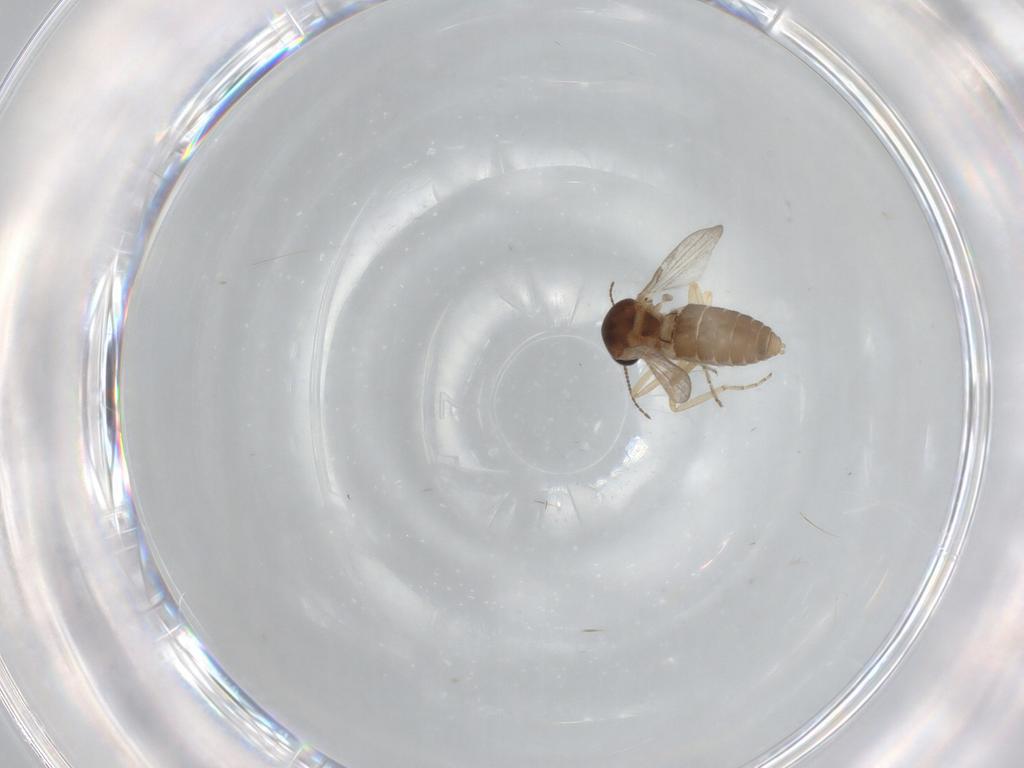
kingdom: Animalia
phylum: Arthropoda
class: Insecta
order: Diptera
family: Ceratopogonidae
